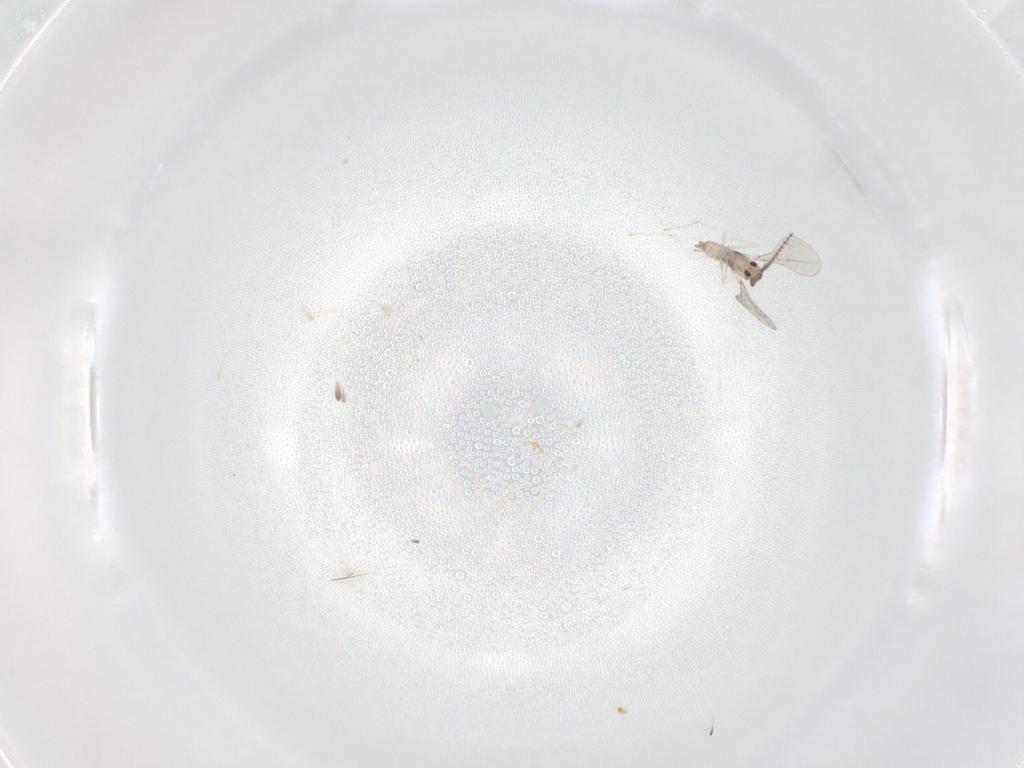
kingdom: Animalia
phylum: Arthropoda
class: Insecta
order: Diptera
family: Cecidomyiidae
